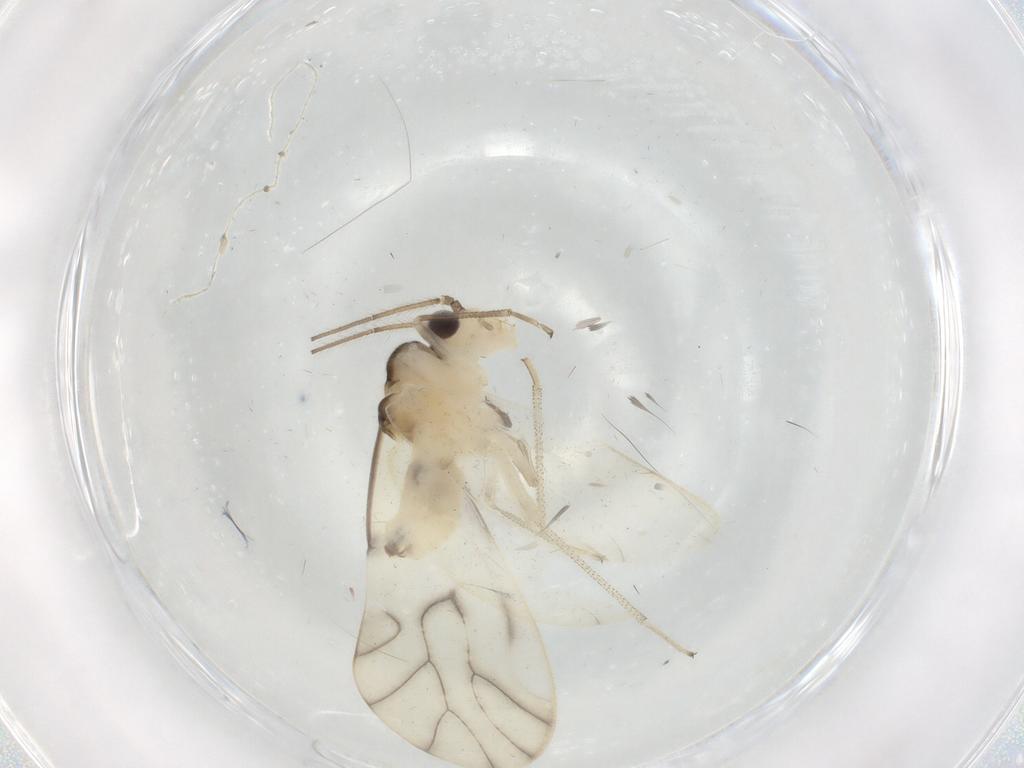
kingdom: Animalia
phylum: Arthropoda
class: Insecta
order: Psocodea
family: Caeciliusidae
